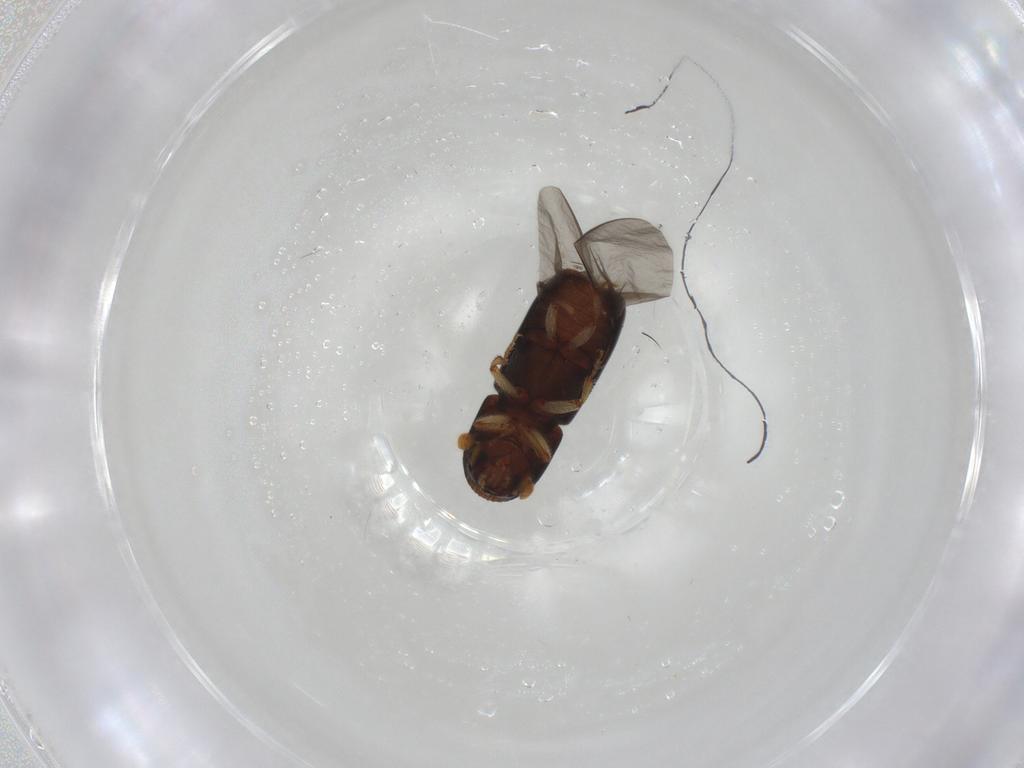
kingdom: Animalia
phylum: Arthropoda
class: Insecta
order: Coleoptera
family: Curculionidae
